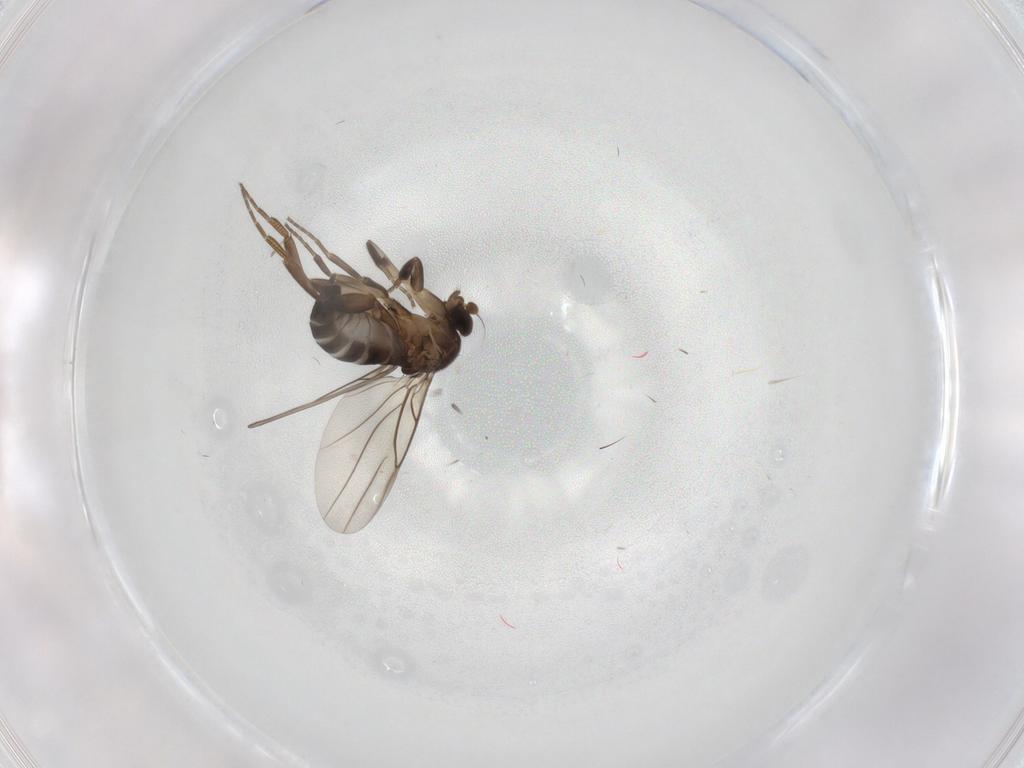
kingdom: Animalia
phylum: Arthropoda
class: Insecta
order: Diptera
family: Phoridae
